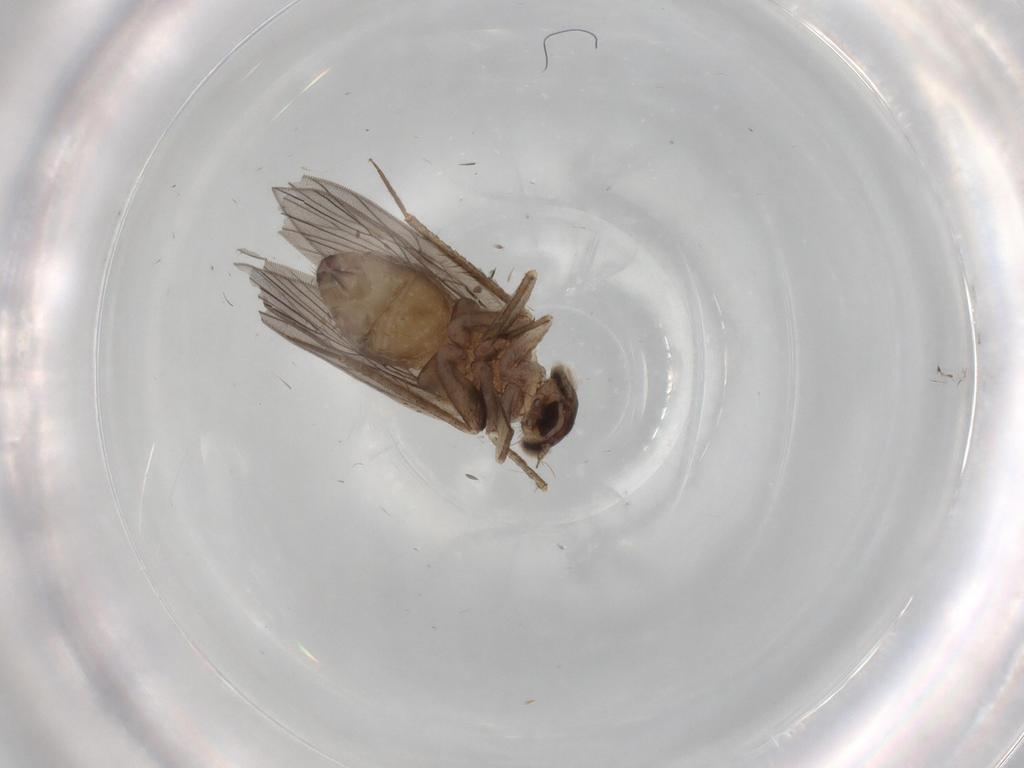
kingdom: Animalia
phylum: Arthropoda
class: Insecta
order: Psocodea
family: Lepidopsocidae
